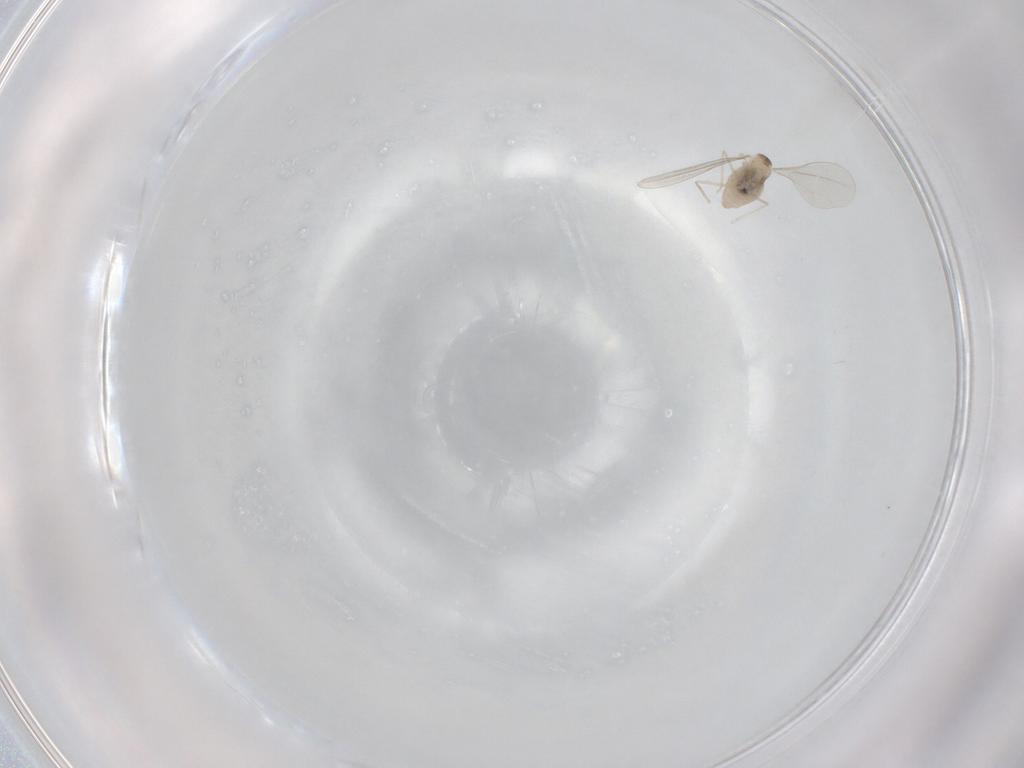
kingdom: Animalia
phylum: Arthropoda
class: Insecta
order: Diptera
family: Cecidomyiidae
